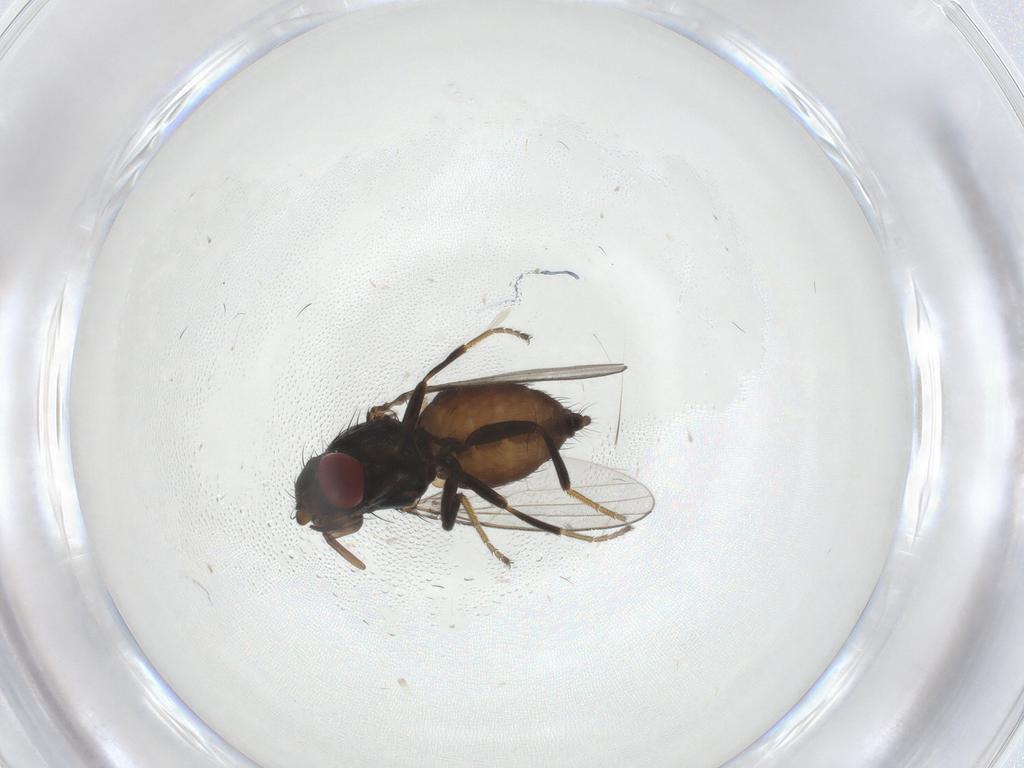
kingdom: Animalia
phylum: Arthropoda
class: Insecta
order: Diptera
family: Milichiidae
